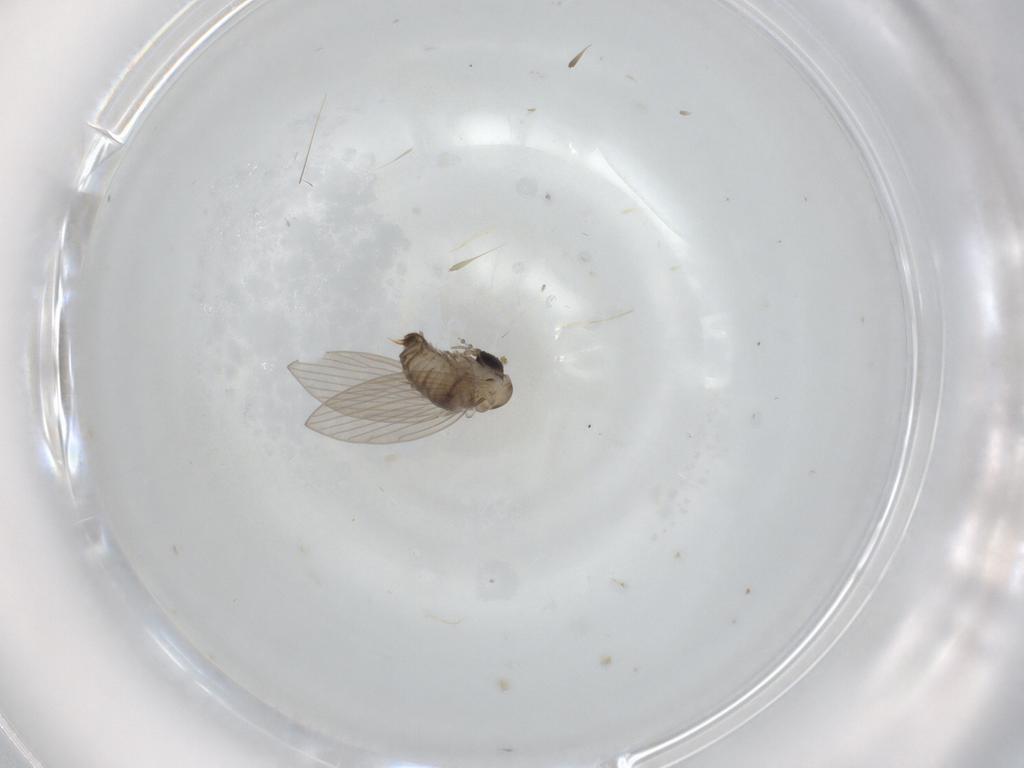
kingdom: Animalia
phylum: Arthropoda
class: Insecta
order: Diptera
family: Psychodidae
